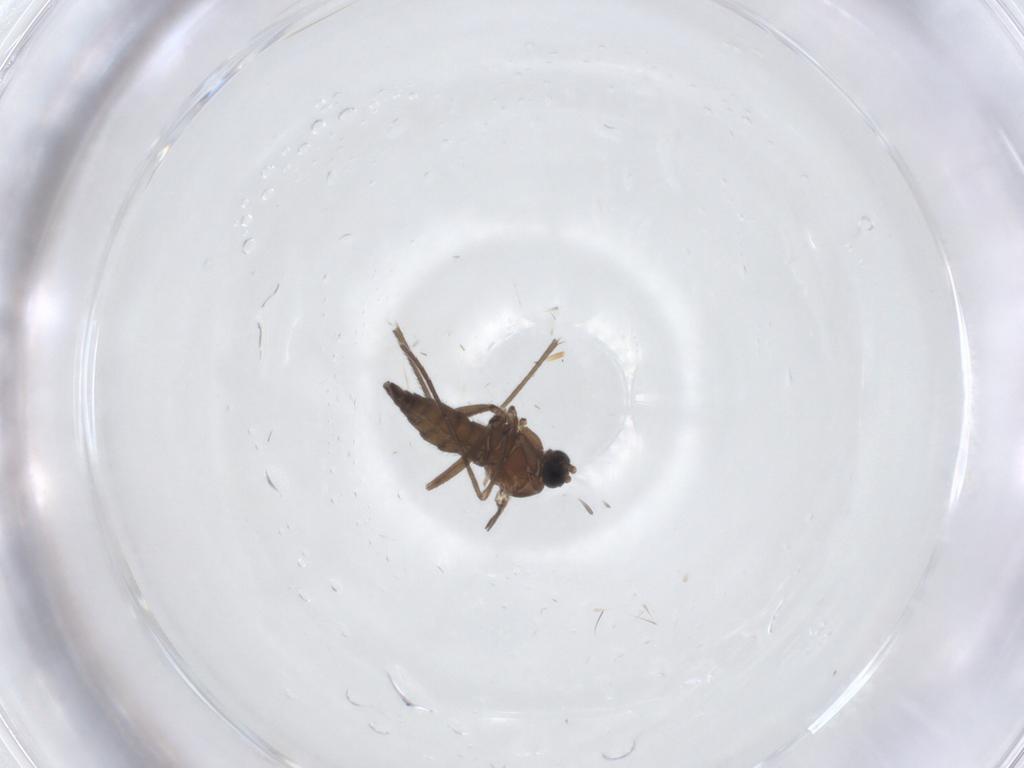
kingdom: Animalia
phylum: Arthropoda
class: Insecta
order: Diptera
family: Sciaridae
